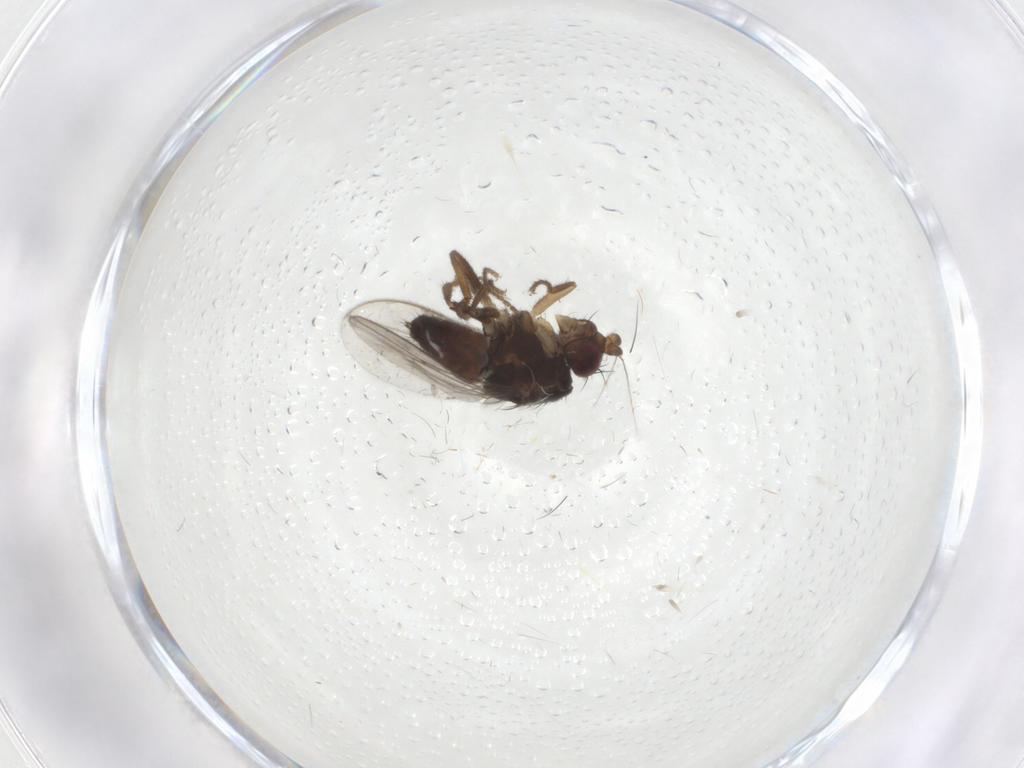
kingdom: Animalia
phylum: Arthropoda
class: Insecta
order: Diptera
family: Sphaeroceridae
